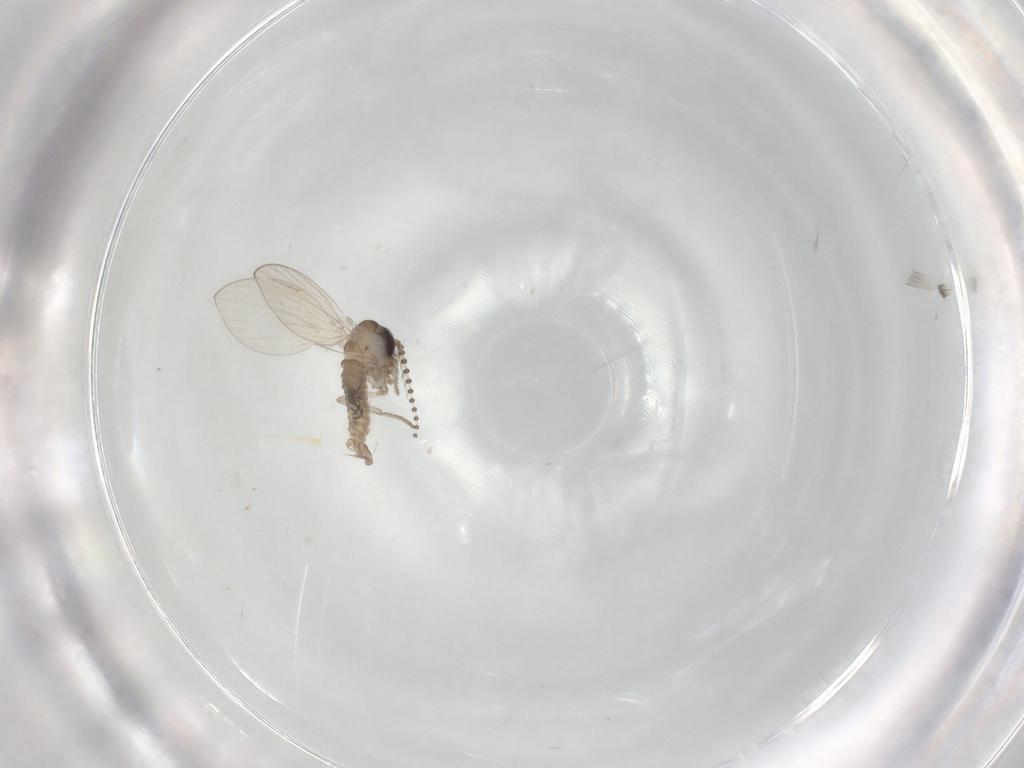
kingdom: Animalia
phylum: Arthropoda
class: Insecta
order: Diptera
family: Psychodidae
